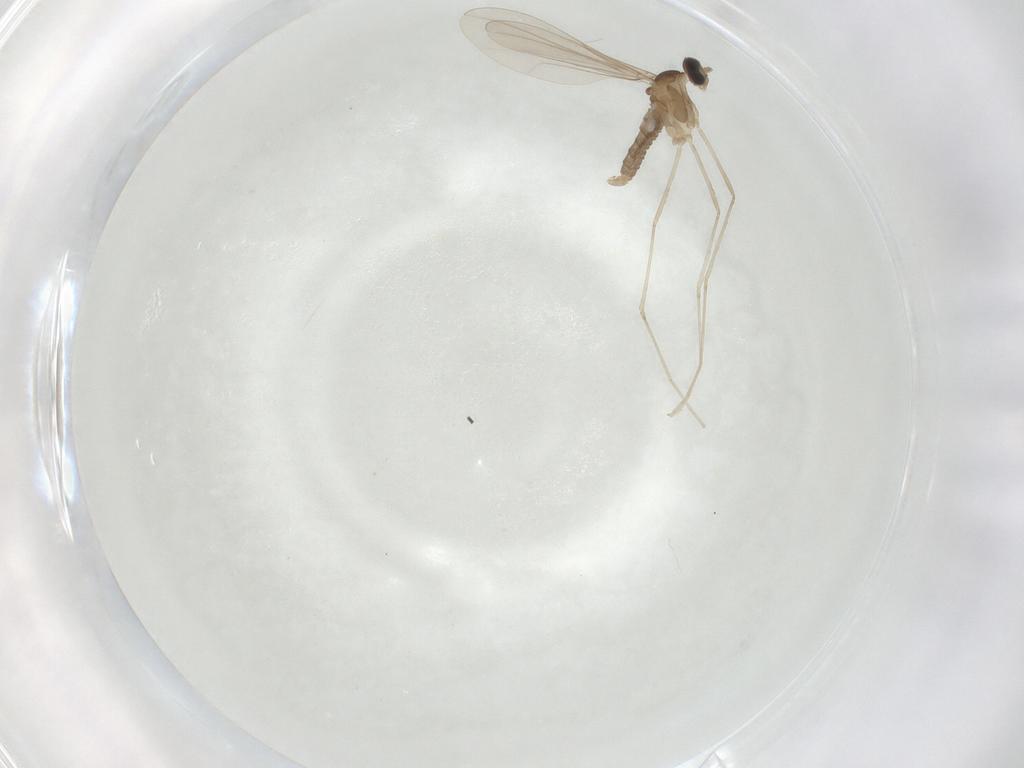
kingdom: Animalia
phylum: Arthropoda
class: Insecta
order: Diptera
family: Cecidomyiidae
